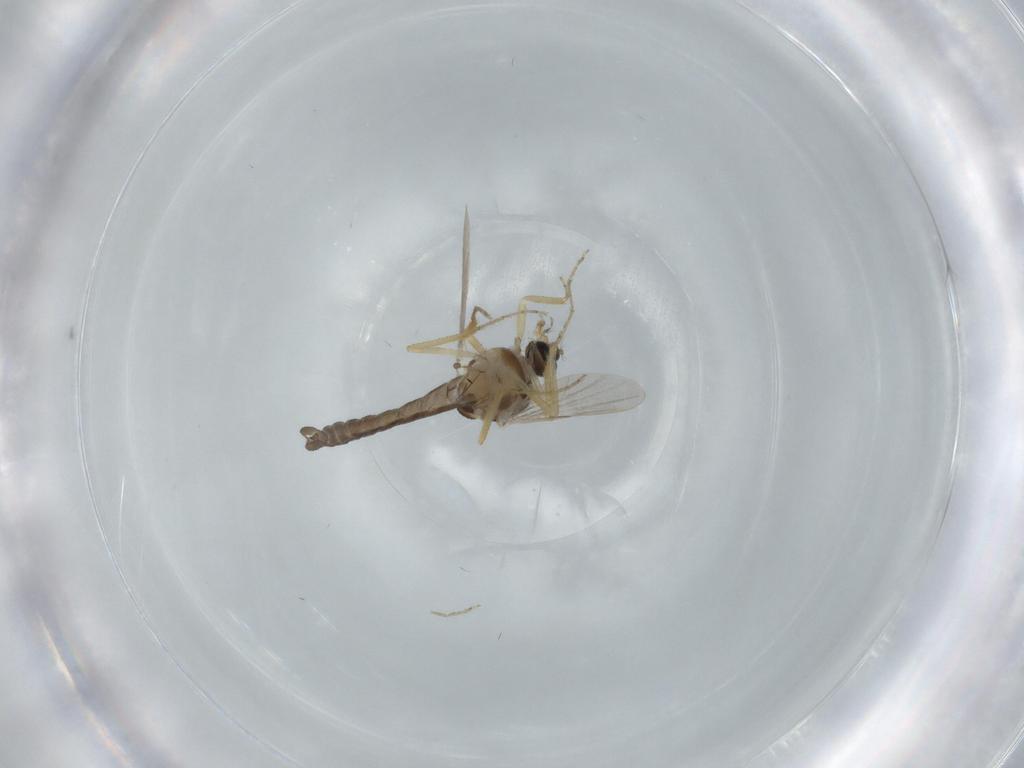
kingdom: Animalia
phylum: Arthropoda
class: Insecta
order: Diptera
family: Ceratopogonidae
